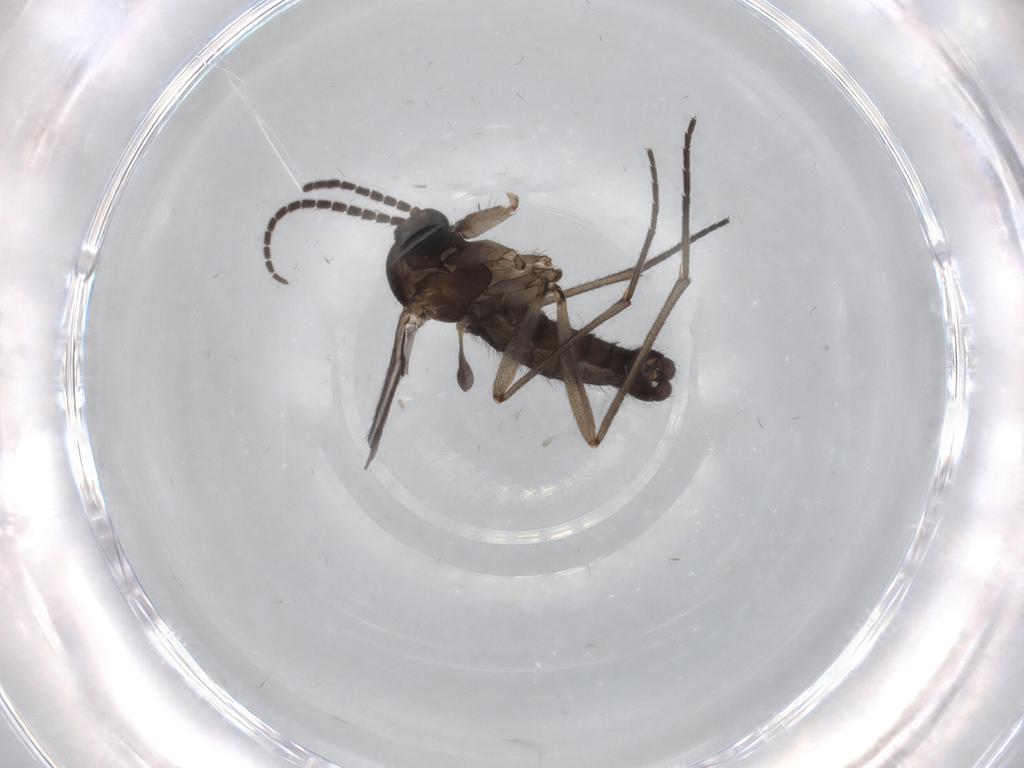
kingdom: Animalia
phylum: Arthropoda
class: Insecta
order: Diptera
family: Sciaridae
